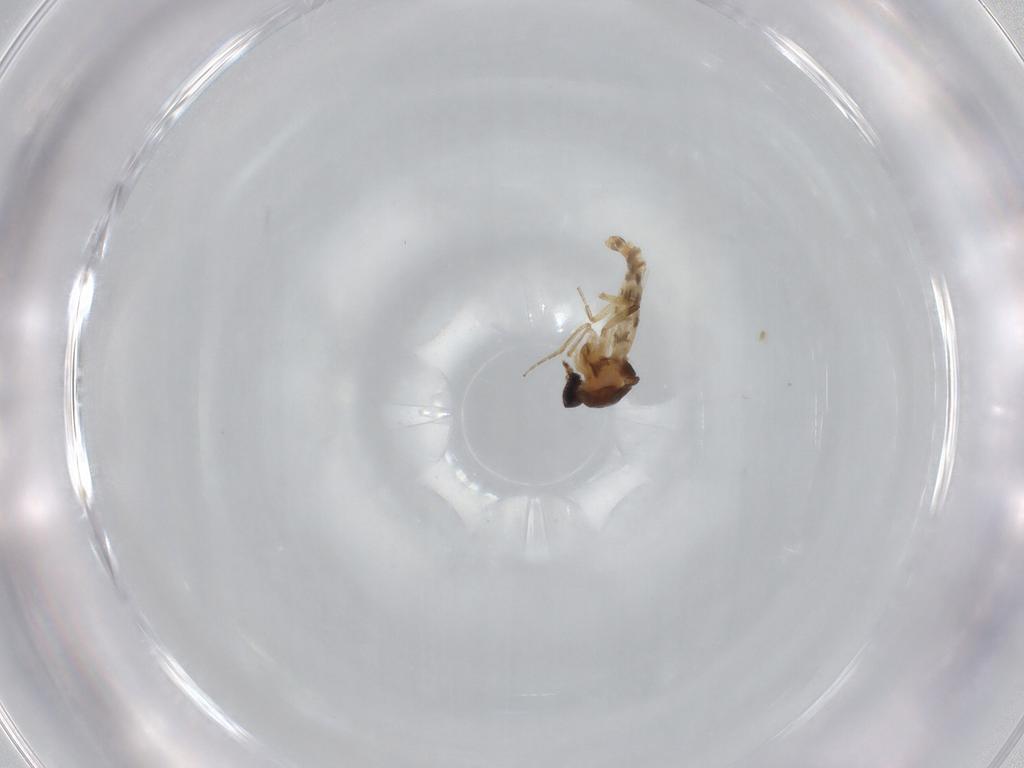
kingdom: Animalia
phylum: Arthropoda
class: Insecta
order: Diptera
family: Ceratopogonidae
